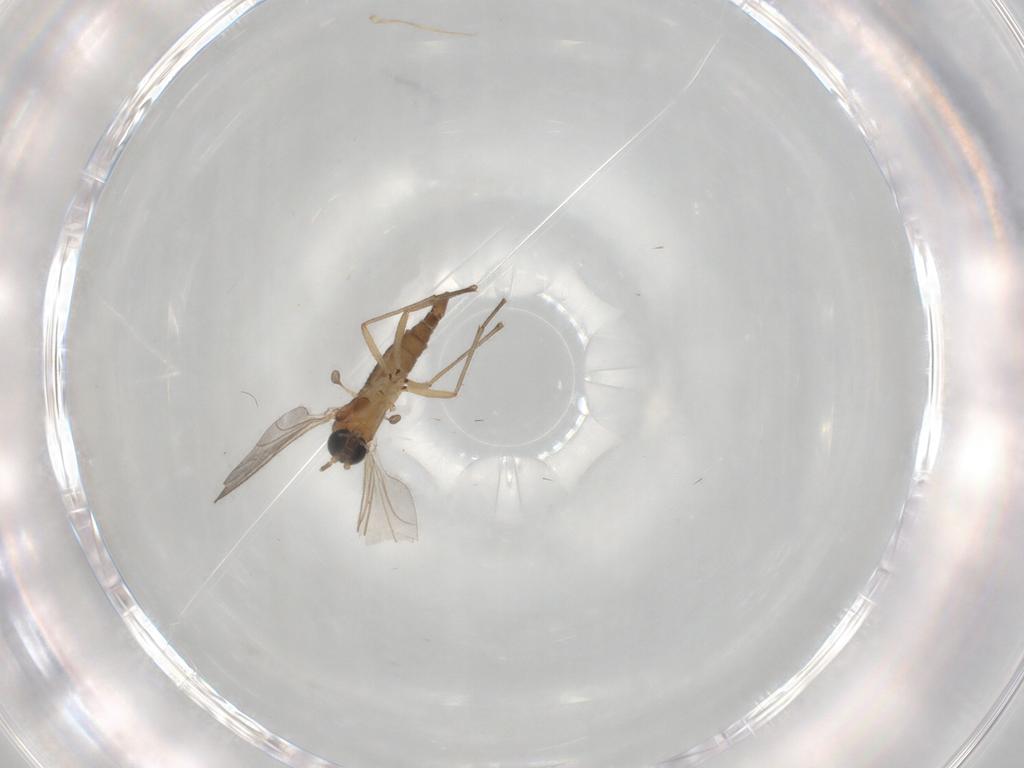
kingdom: Animalia
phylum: Arthropoda
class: Insecta
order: Diptera
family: Sciaridae
